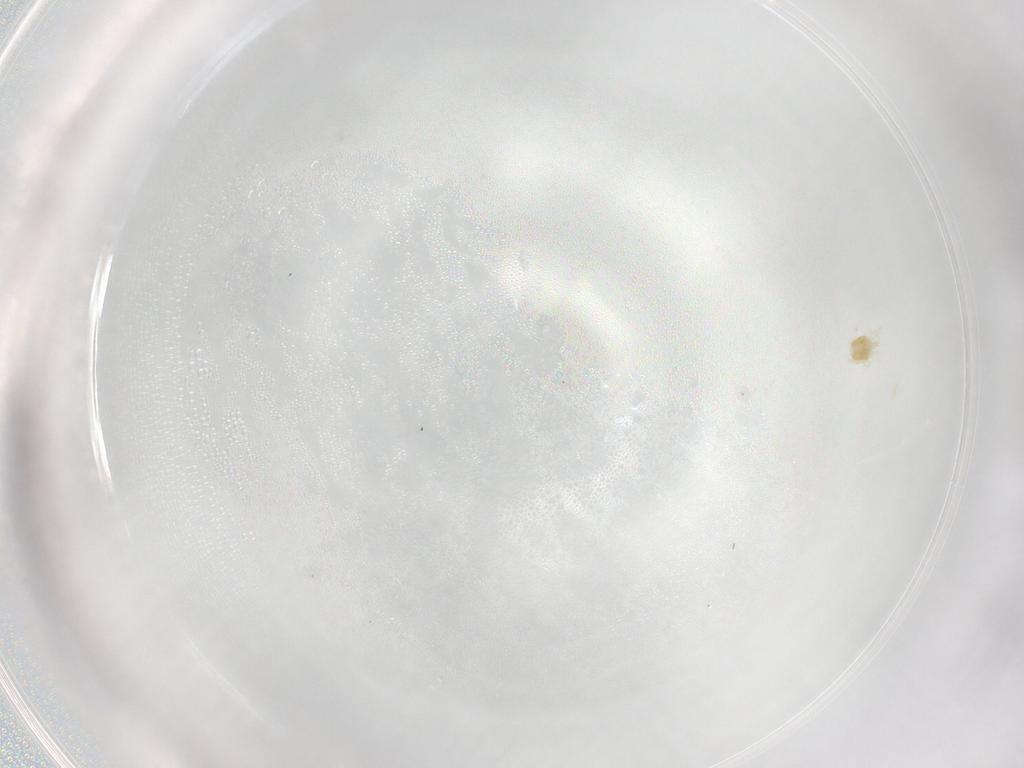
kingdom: Animalia
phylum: Arthropoda
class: Arachnida
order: Trombidiformes
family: Eupodidae
